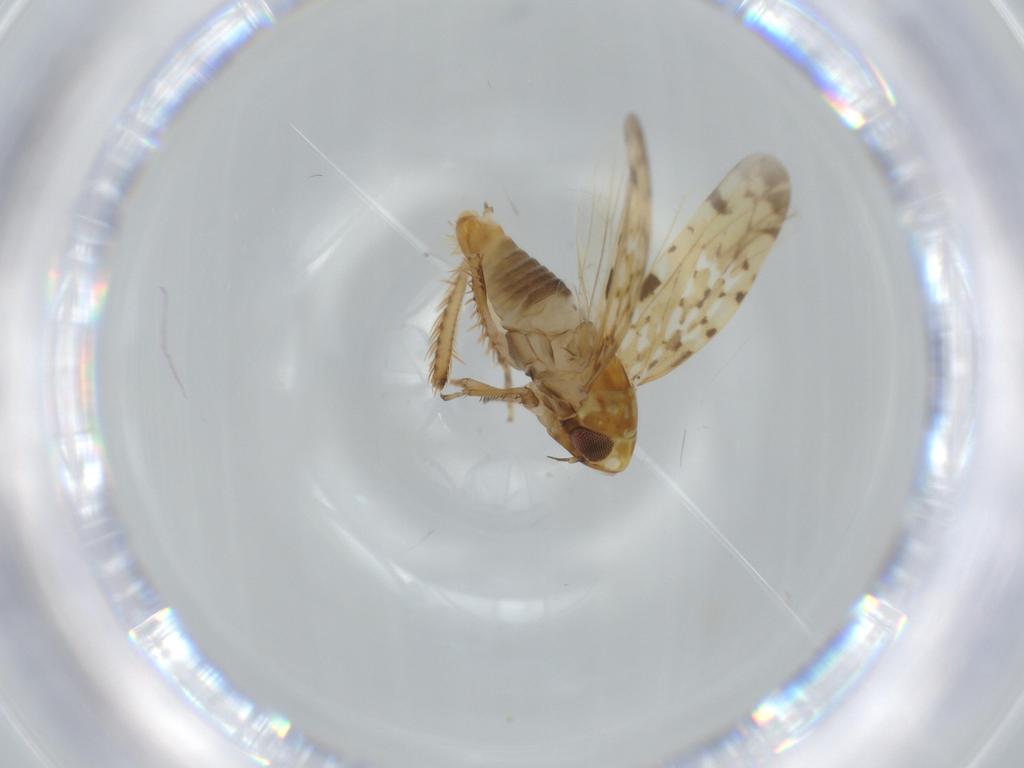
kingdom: Animalia
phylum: Arthropoda
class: Insecta
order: Hemiptera
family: Cicadellidae
